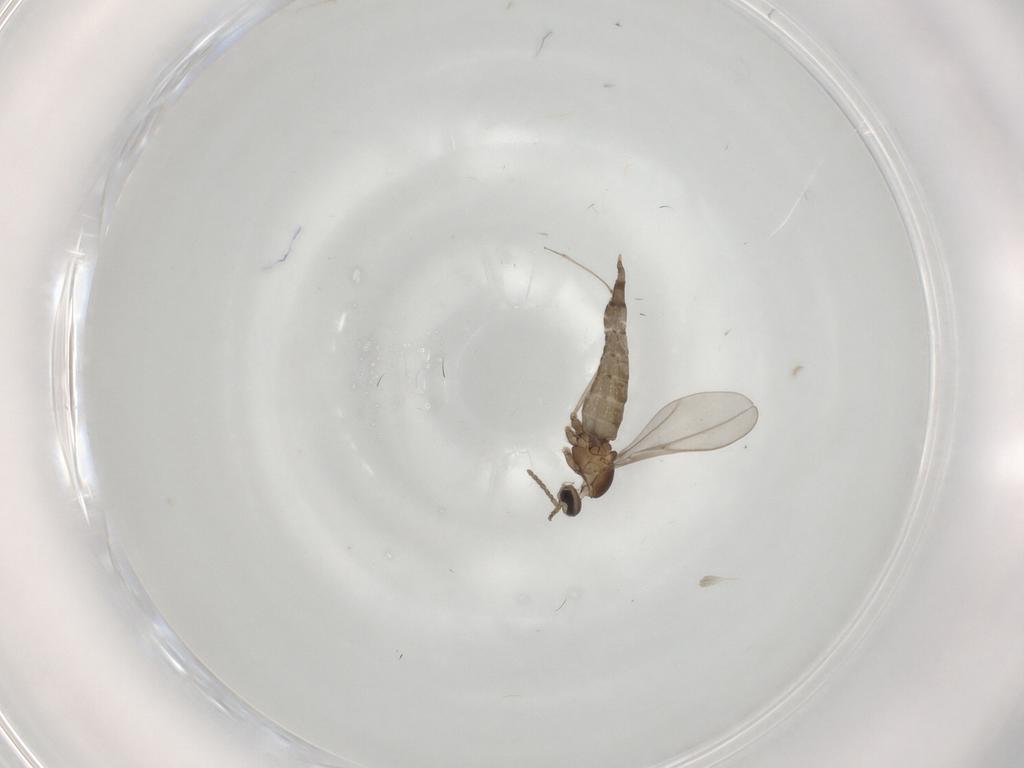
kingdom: Animalia
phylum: Arthropoda
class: Insecta
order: Diptera
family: Cecidomyiidae
